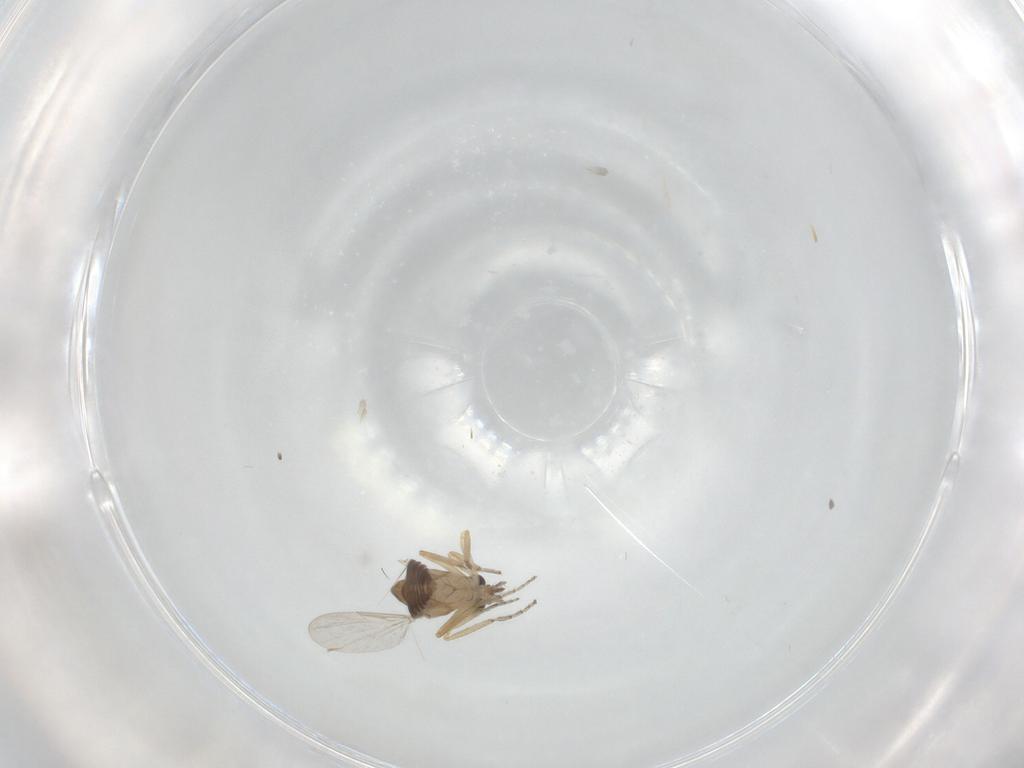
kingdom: Animalia
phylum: Arthropoda
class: Insecta
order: Diptera
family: Ceratopogonidae
